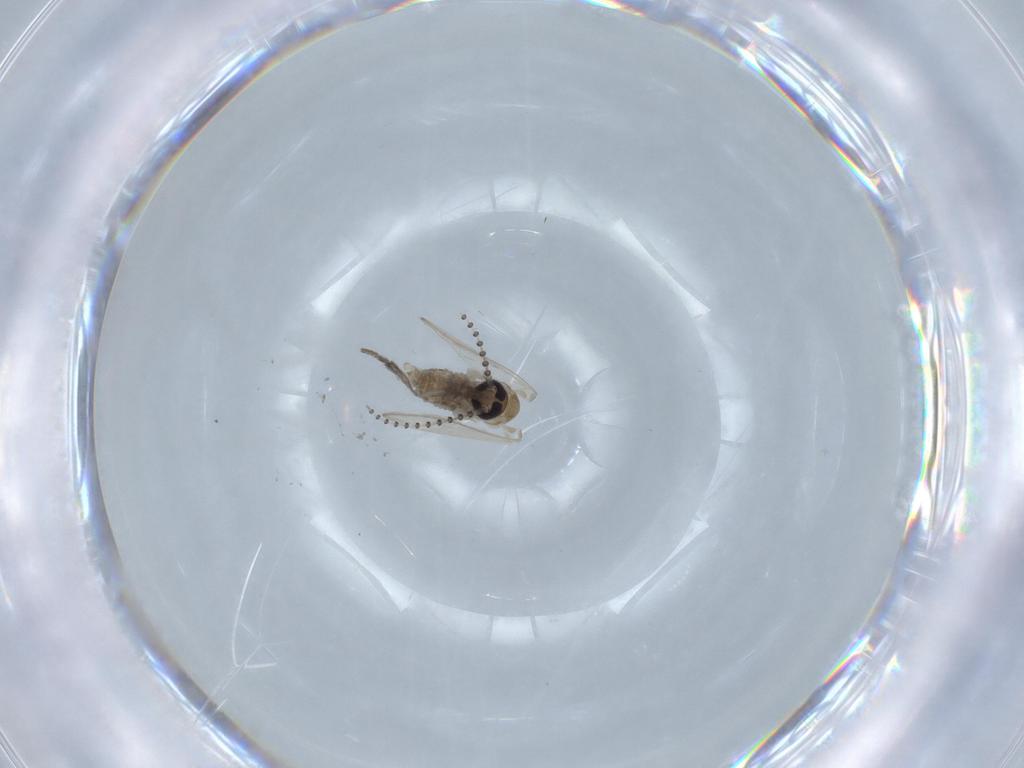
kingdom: Animalia
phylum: Arthropoda
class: Insecta
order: Diptera
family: Psychodidae
